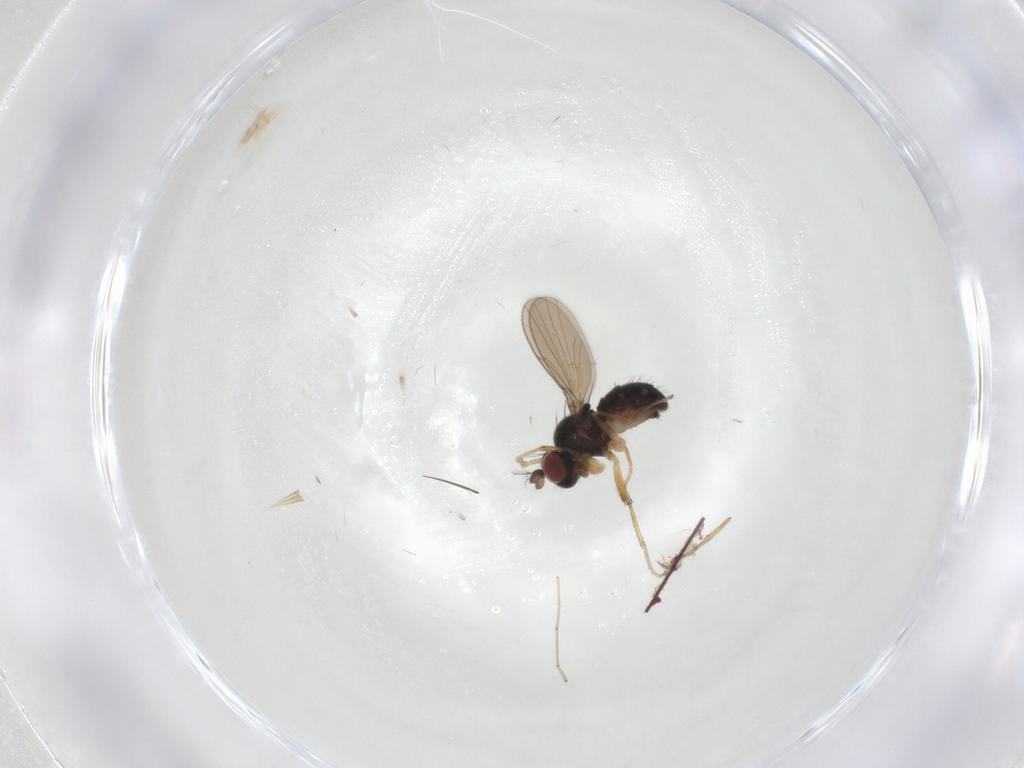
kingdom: Animalia
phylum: Arthropoda
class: Insecta
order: Diptera
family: Ephydridae
